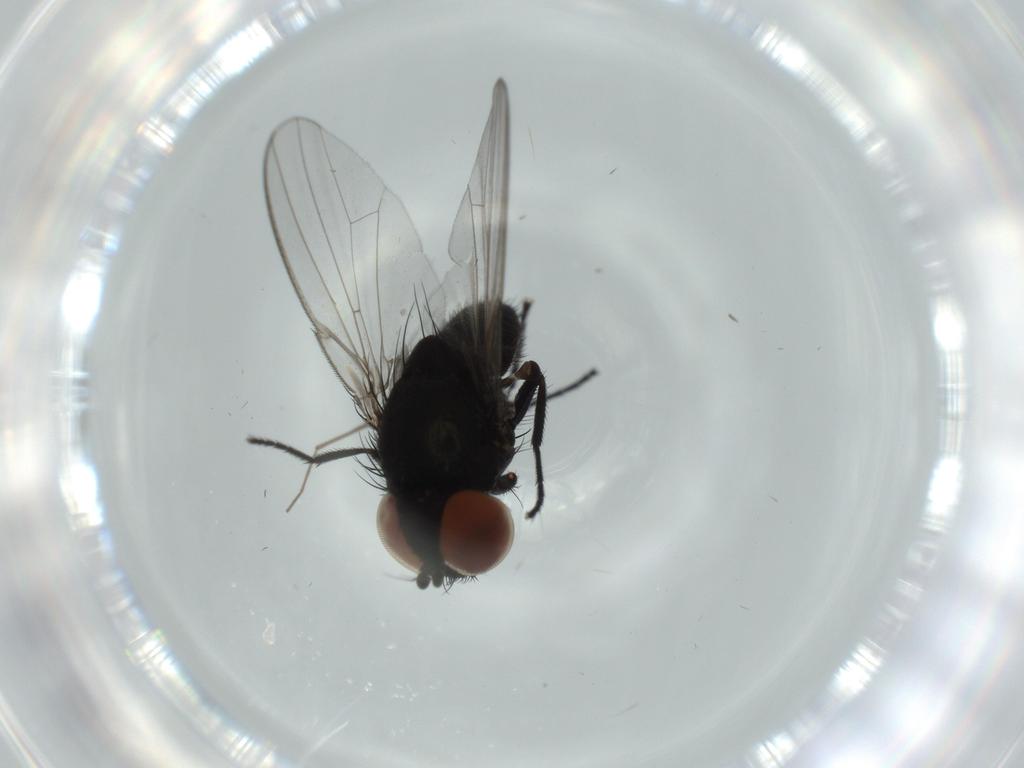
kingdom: Animalia
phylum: Arthropoda
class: Insecta
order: Diptera
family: Milichiidae
